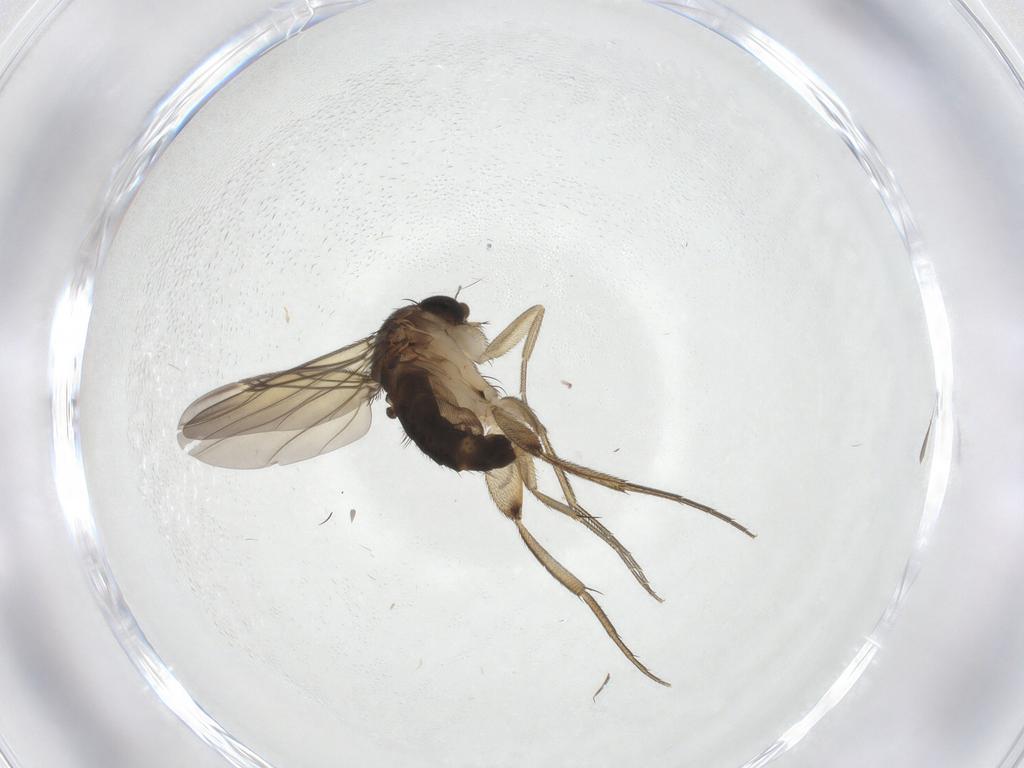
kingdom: Animalia
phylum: Arthropoda
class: Insecta
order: Diptera
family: Phoridae
